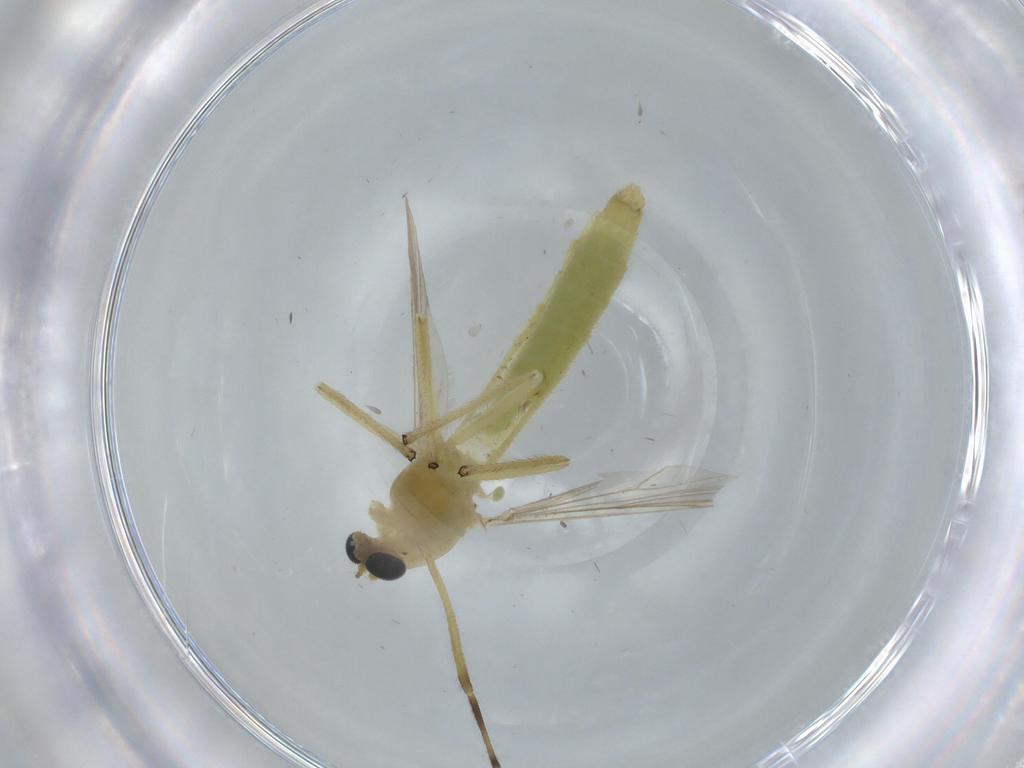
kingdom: Animalia
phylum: Arthropoda
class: Insecta
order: Diptera
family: Chironomidae
